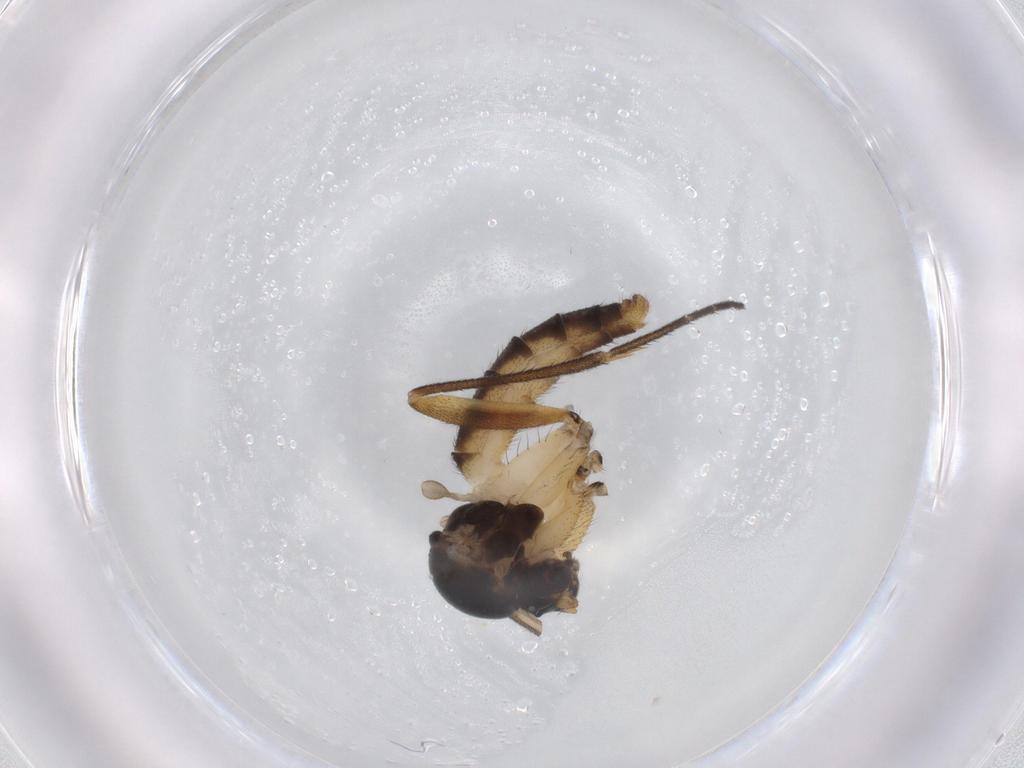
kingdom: Animalia
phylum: Arthropoda
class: Insecta
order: Diptera
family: Drosophilidae
